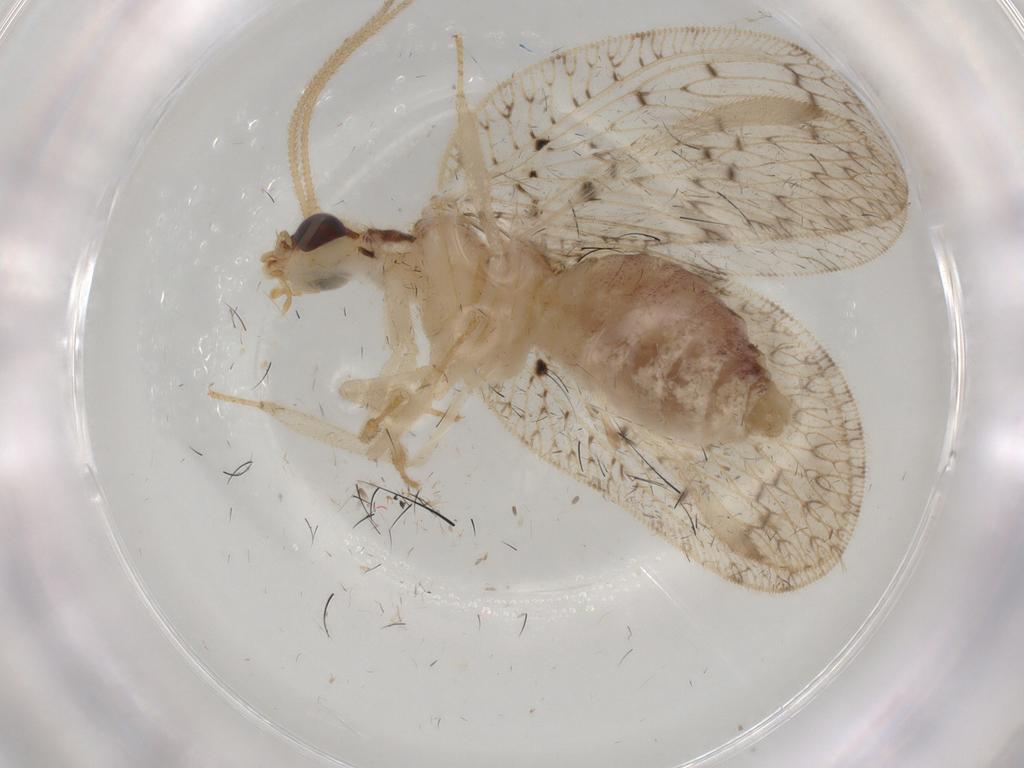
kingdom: Animalia
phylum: Arthropoda
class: Insecta
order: Neuroptera
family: Hemerobiidae
